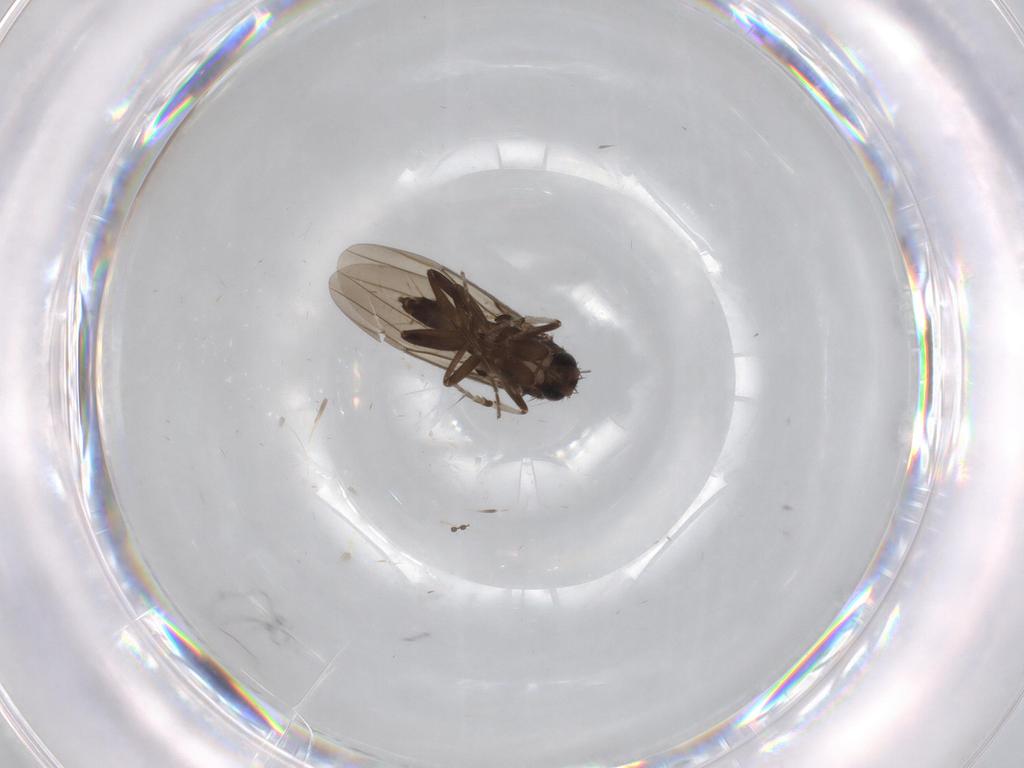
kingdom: Animalia
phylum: Arthropoda
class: Insecta
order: Diptera
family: Phoridae
